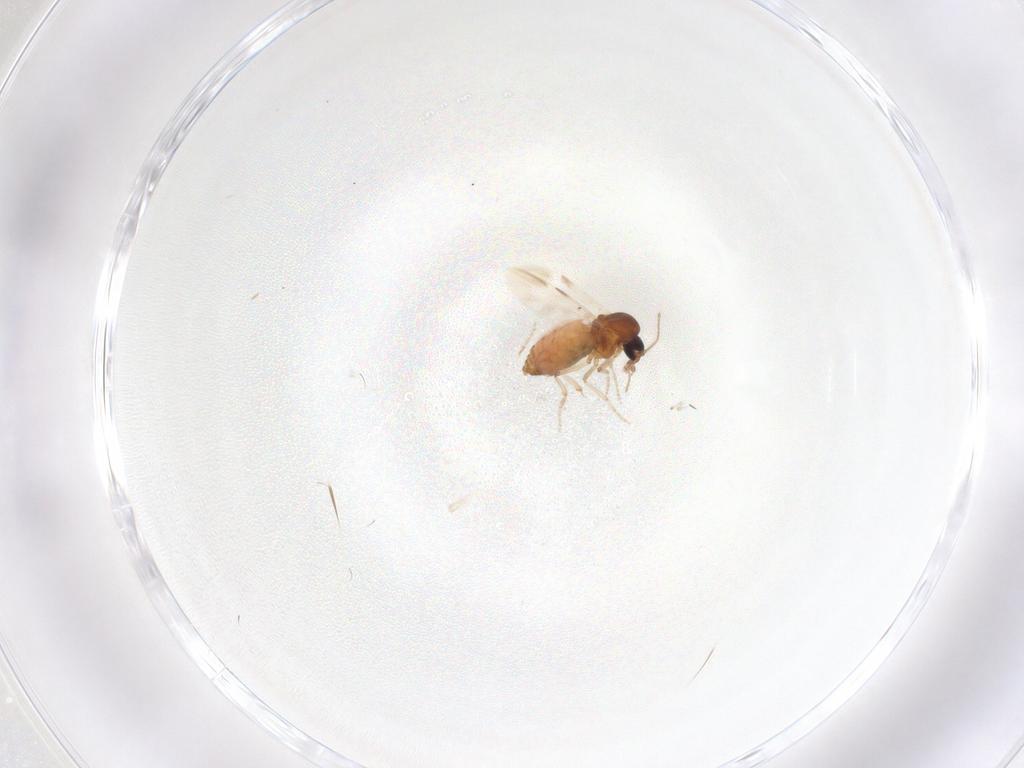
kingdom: Animalia
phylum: Arthropoda
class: Insecta
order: Diptera
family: Ceratopogonidae
